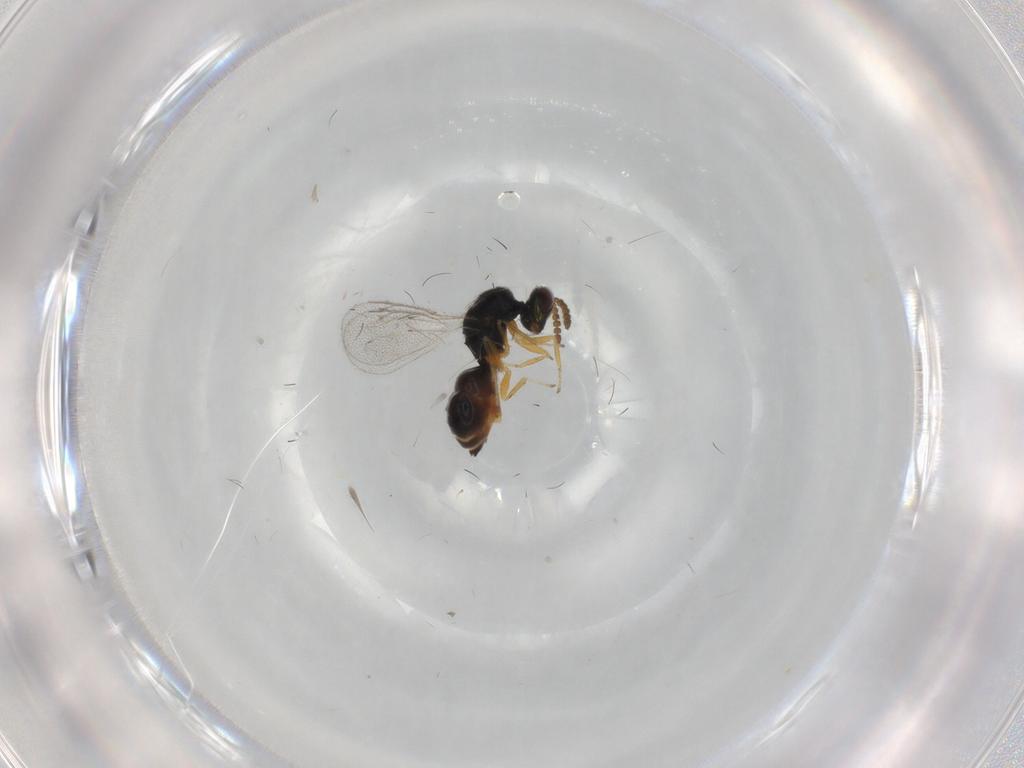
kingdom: Animalia
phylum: Arthropoda
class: Insecta
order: Hymenoptera
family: Eulophidae
